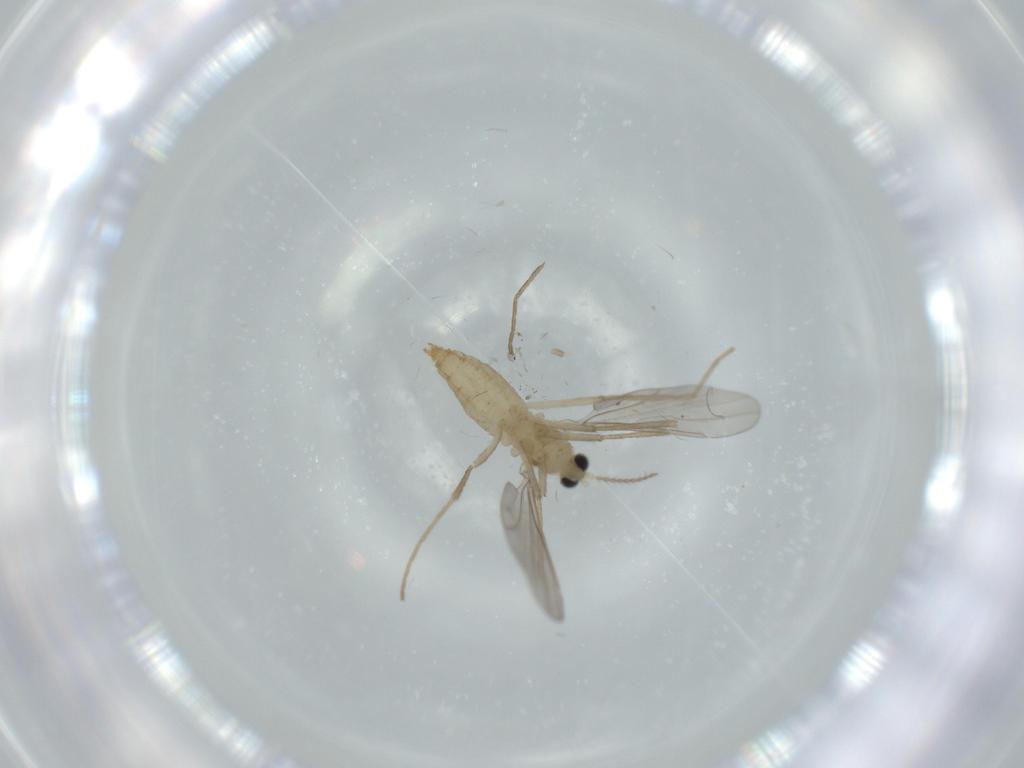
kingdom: Animalia
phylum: Arthropoda
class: Insecta
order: Diptera
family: Cecidomyiidae
